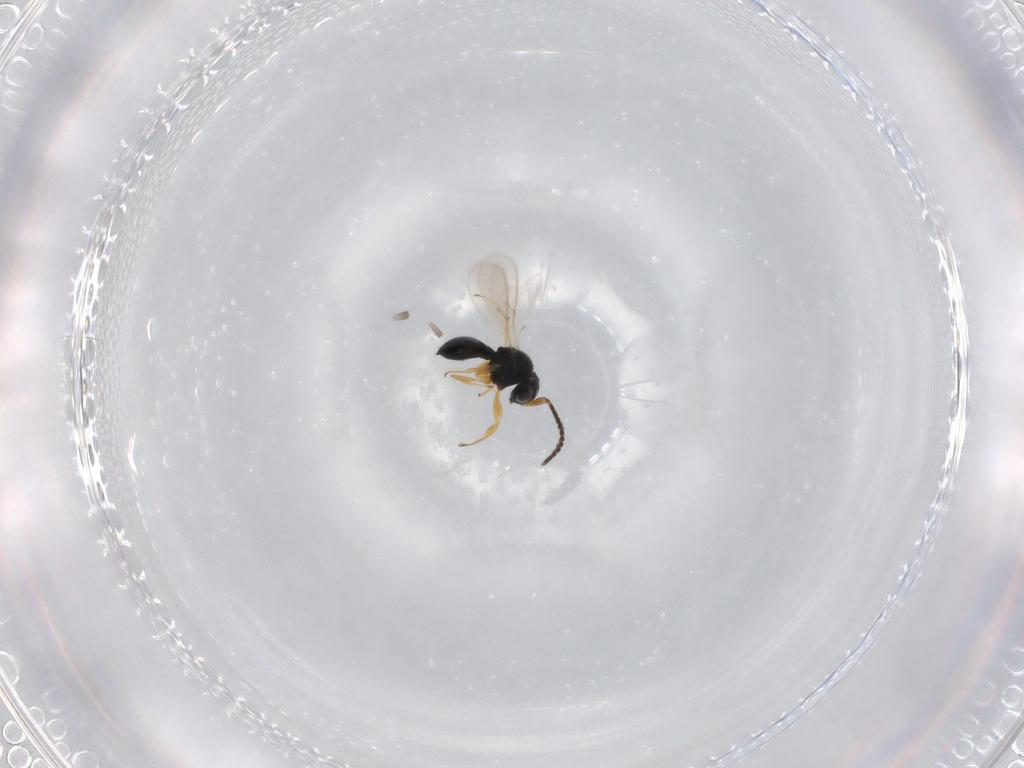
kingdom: Animalia
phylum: Arthropoda
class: Insecta
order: Hymenoptera
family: Scelionidae
